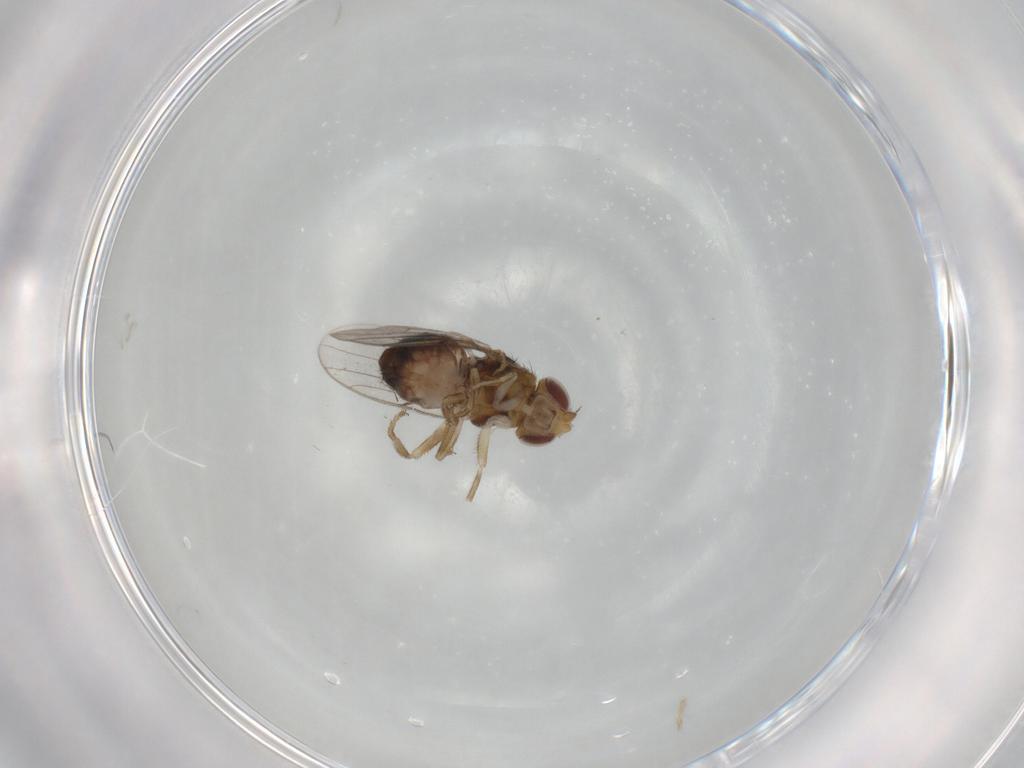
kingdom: Animalia
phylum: Arthropoda
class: Insecta
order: Diptera
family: Chloropidae
